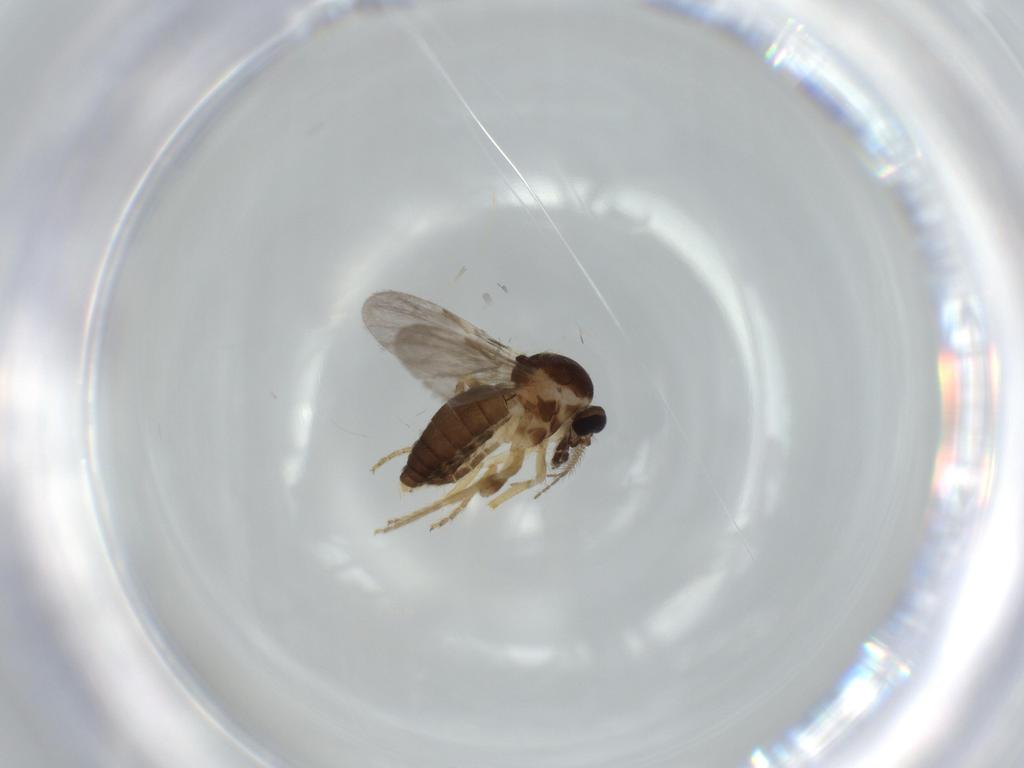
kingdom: Animalia
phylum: Arthropoda
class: Insecta
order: Diptera
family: Ceratopogonidae
